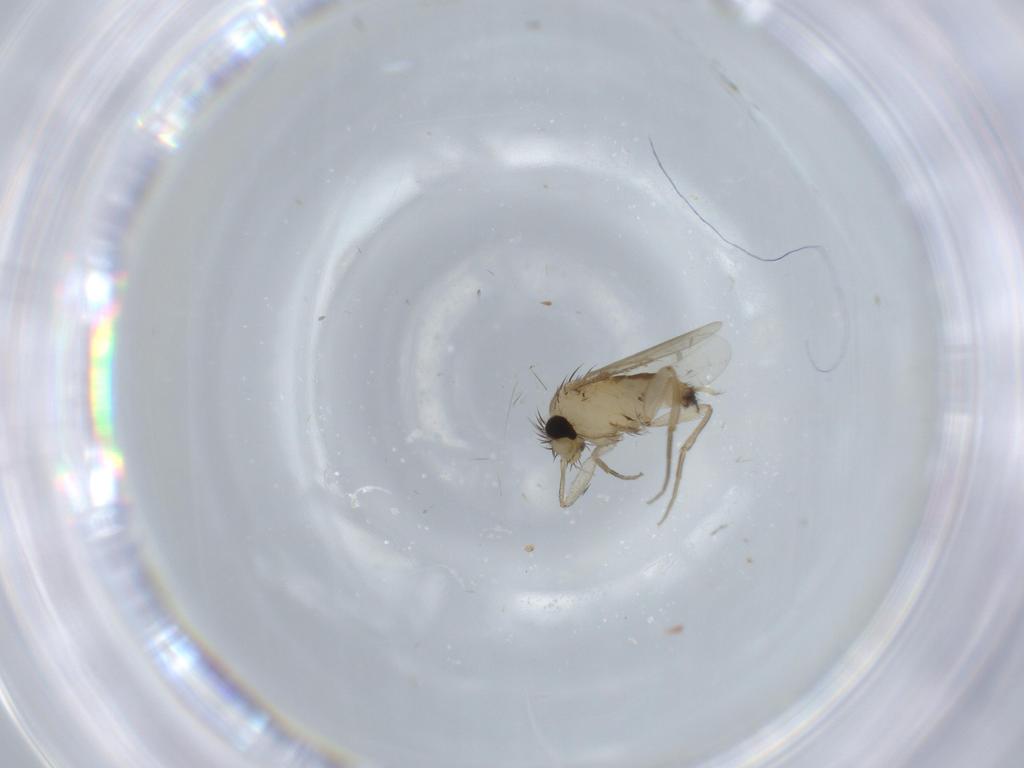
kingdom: Animalia
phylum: Arthropoda
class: Insecta
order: Diptera
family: Phoridae
